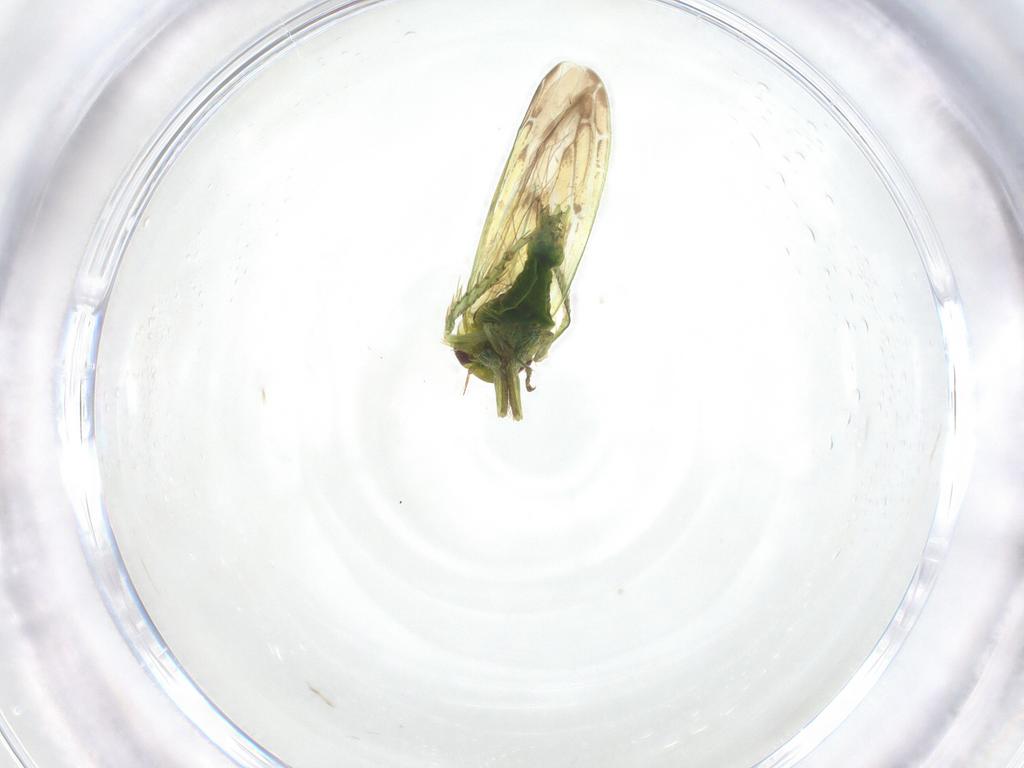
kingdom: Animalia
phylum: Arthropoda
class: Insecta
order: Hemiptera
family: Cicadellidae
